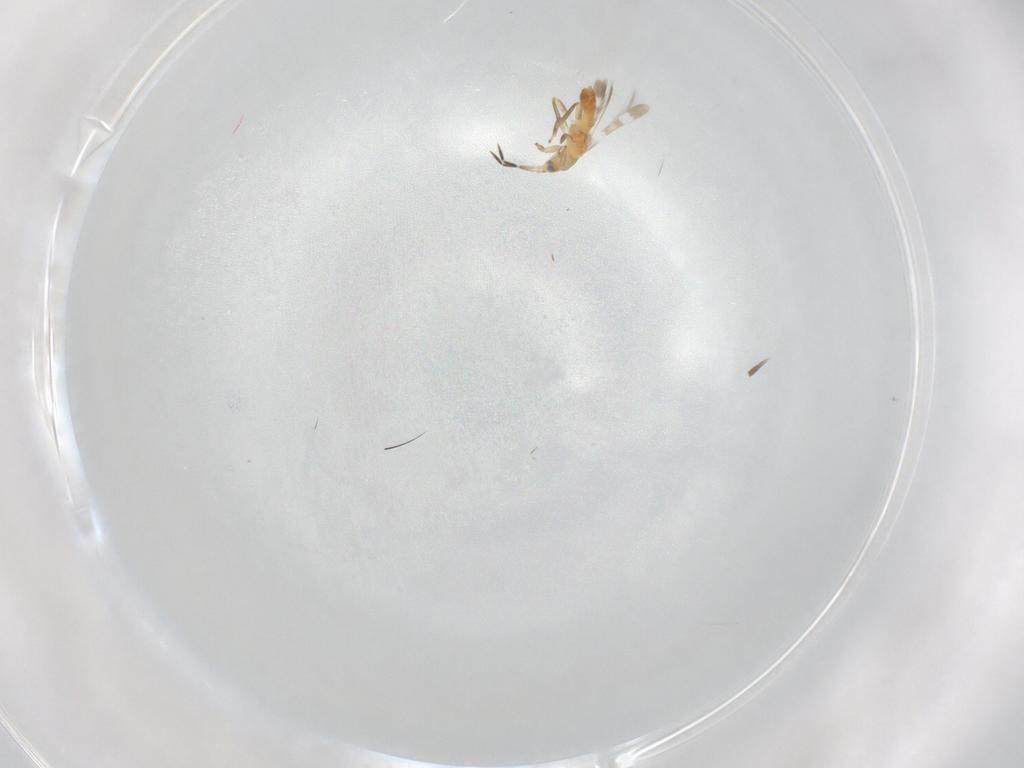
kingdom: Animalia
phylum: Arthropoda
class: Insecta
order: Thysanoptera
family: Aeolothripidae
